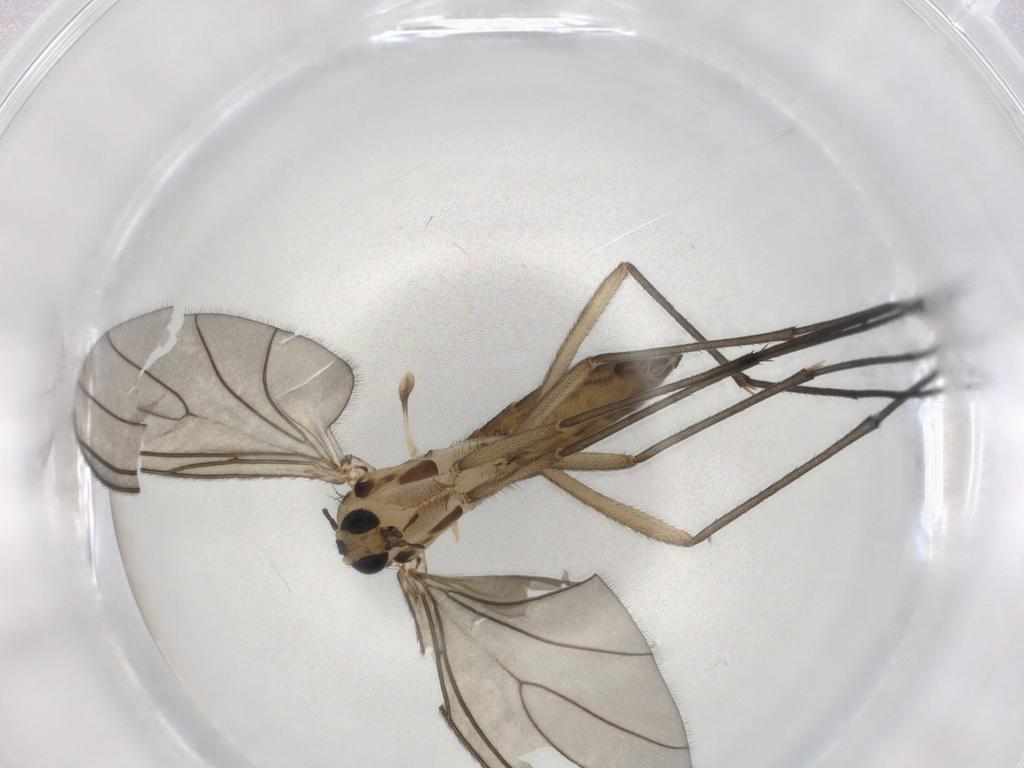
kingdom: Animalia
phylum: Arthropoda
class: Insecta
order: Diptera
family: Sciaridae
